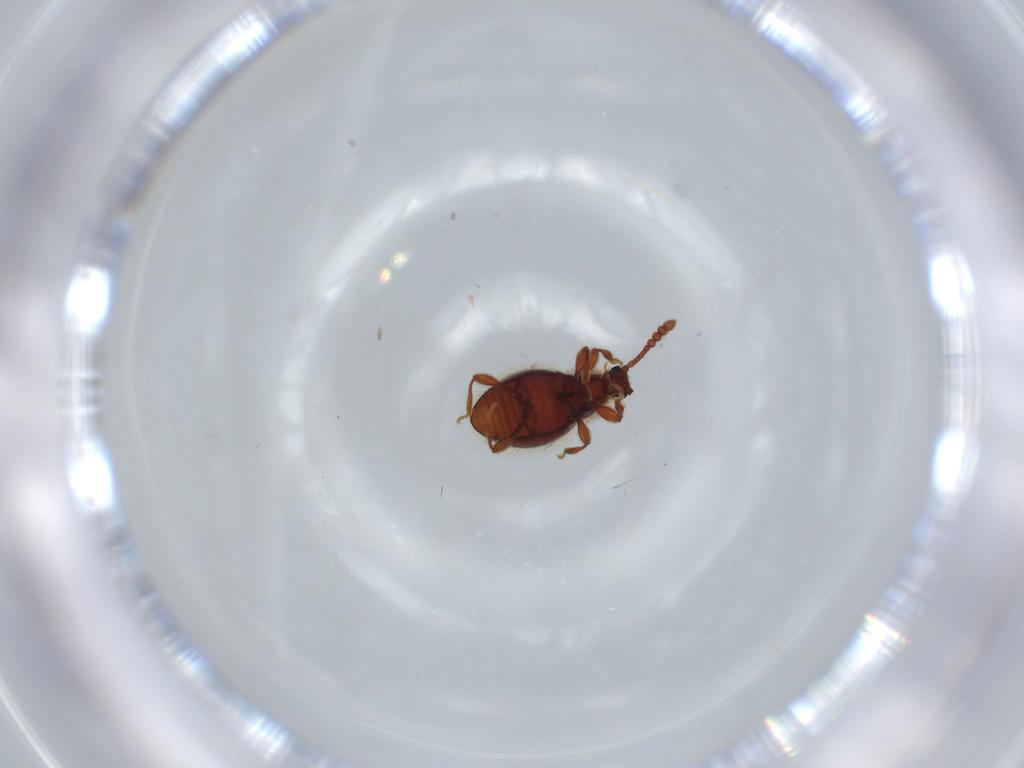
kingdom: Animalia
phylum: Arthropoda
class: Insecta
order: Coleoptera
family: Staphylinidae
